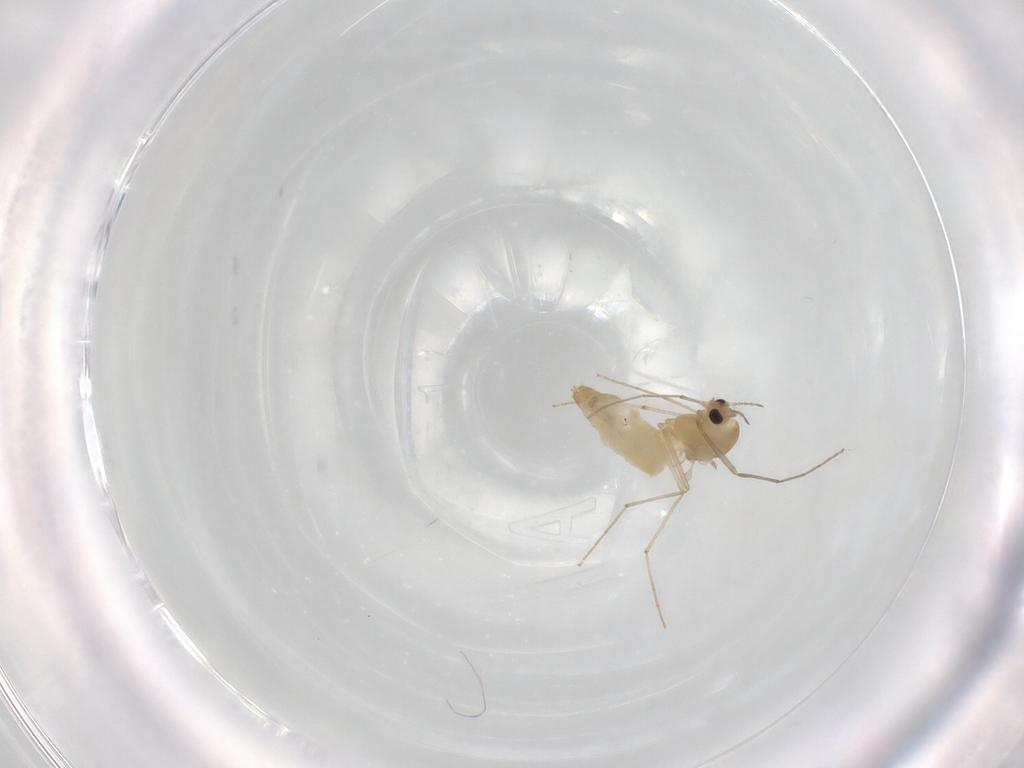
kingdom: Animalia
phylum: Arthropoda
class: Insecta
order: Diptera
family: Chironomidae
